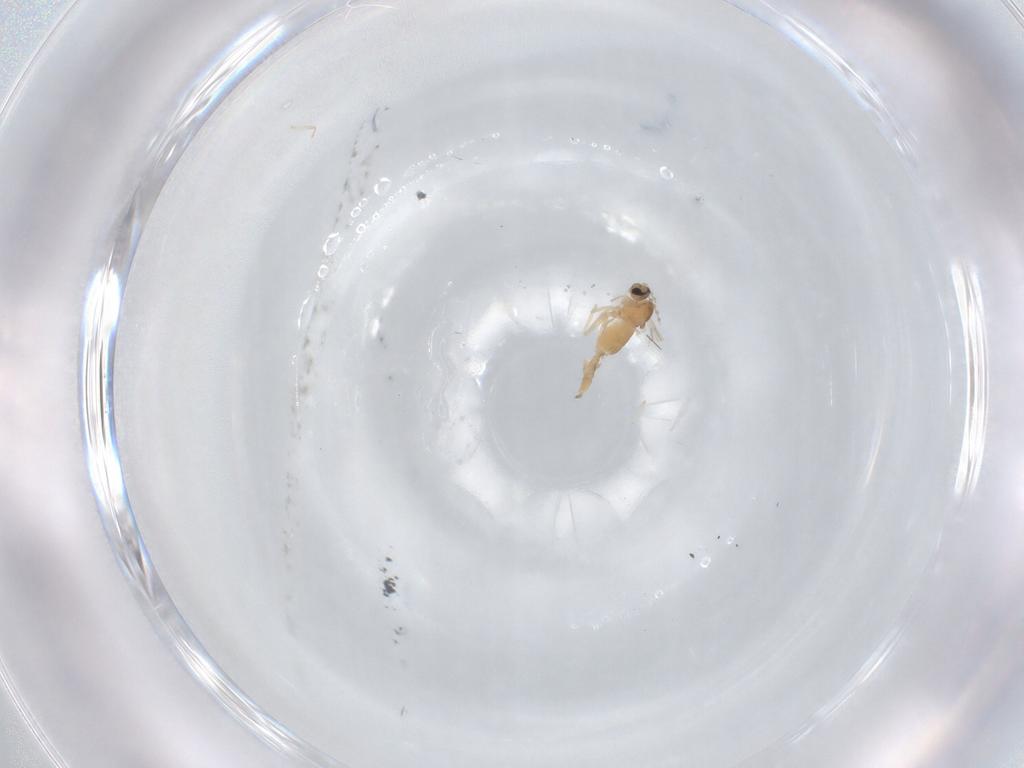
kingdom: Animalia
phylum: Arthropoda
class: Insecta
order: Diptera
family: Cecidomyiidae
